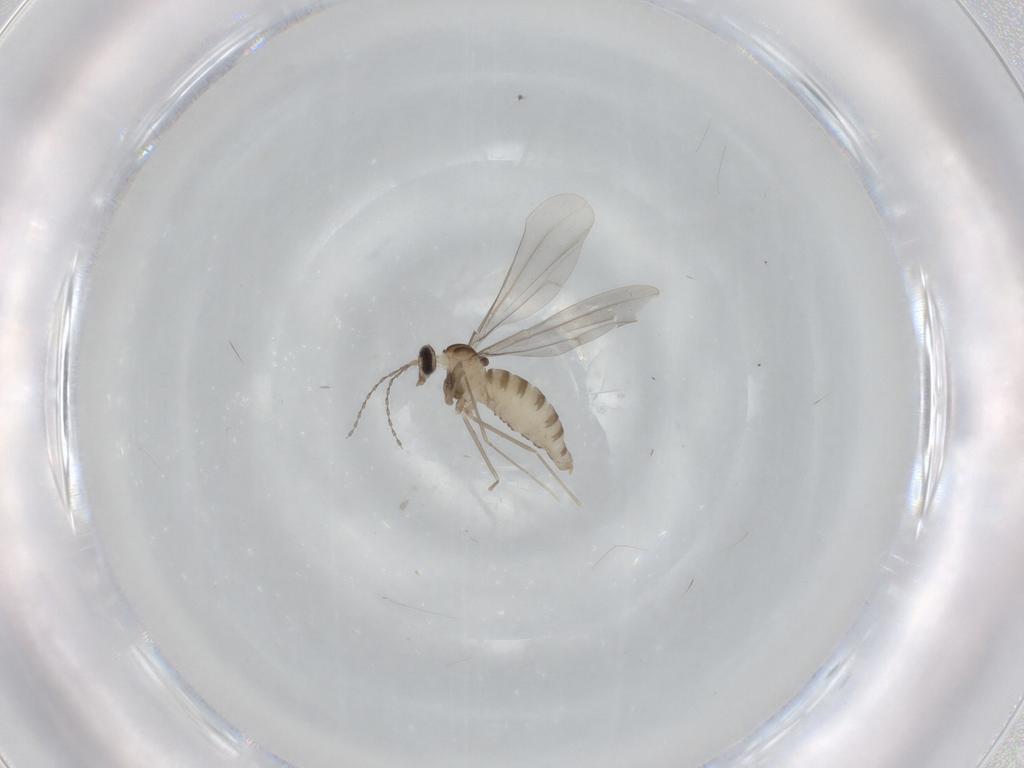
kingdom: Animalia
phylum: Arthropoda
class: Insecta
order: Diptera
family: Cecidomyiidae
